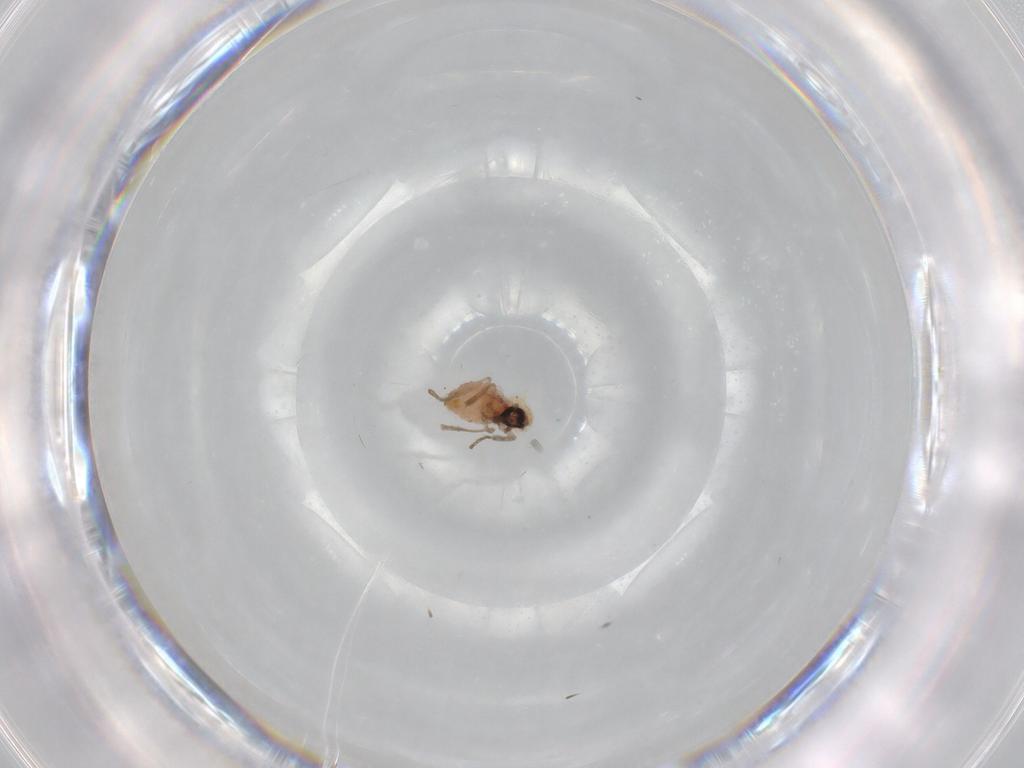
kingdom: Animalia
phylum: Arthropoda
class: Insecta
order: Diptera
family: Psychodidae
